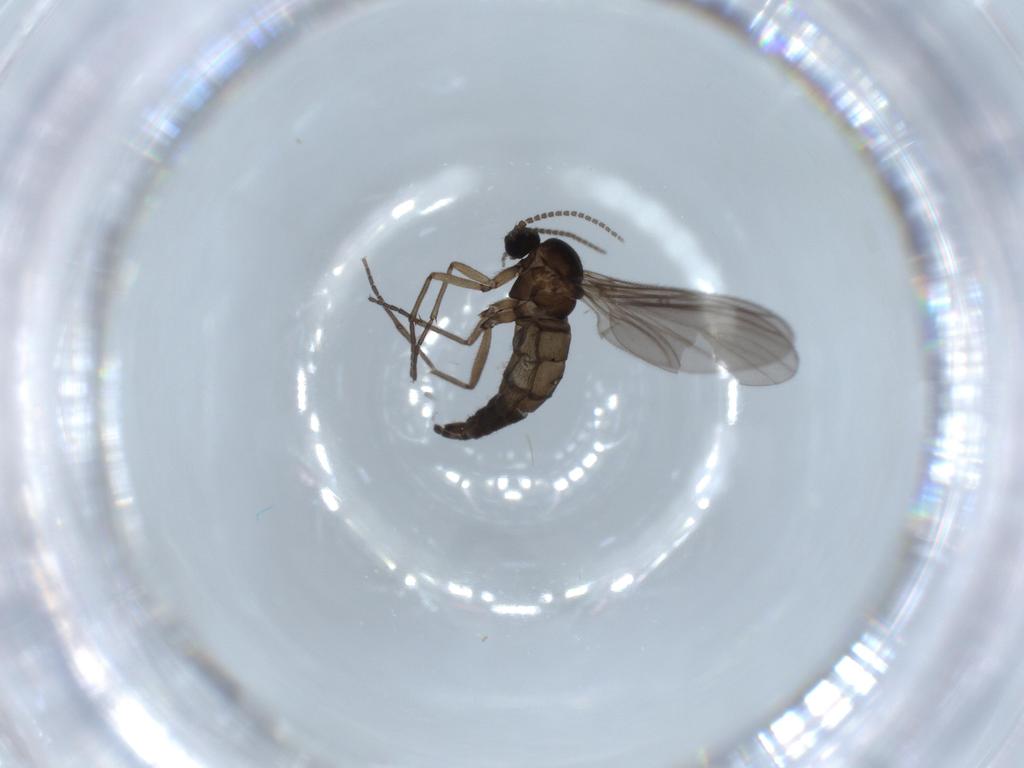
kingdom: Animalia
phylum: Arthropoda
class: Insecta
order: Diptera
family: Sciaridae
